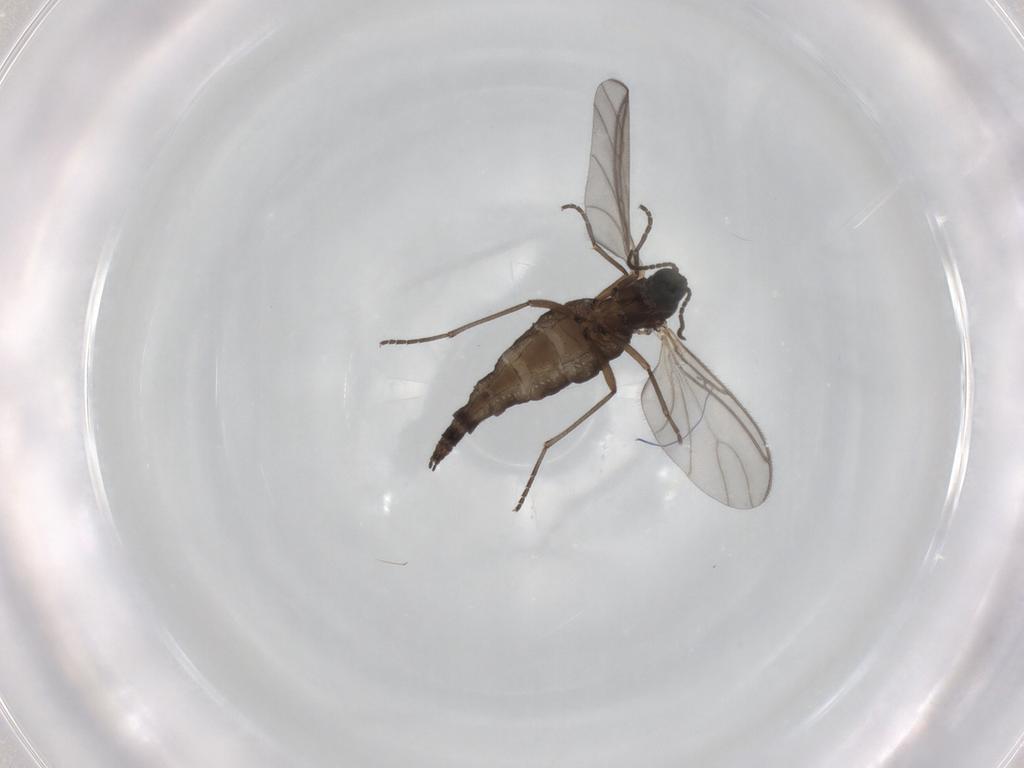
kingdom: Animalia
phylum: Arthropoda
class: Insecta
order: Diptera
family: Sciaridae
